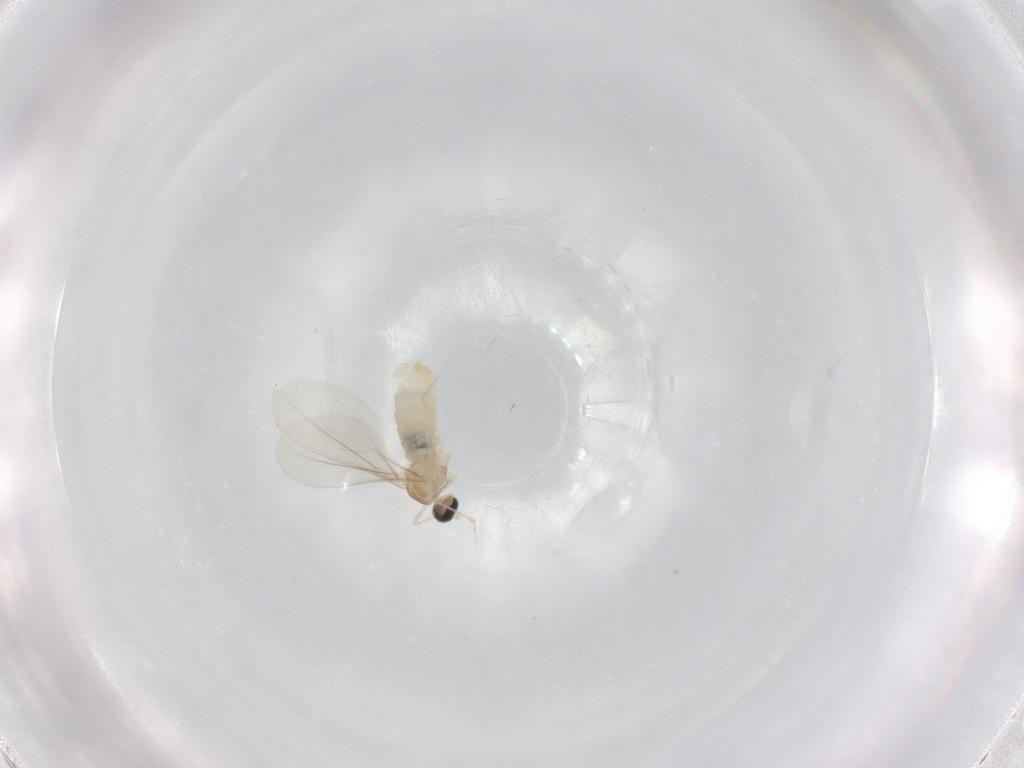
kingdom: Animalia
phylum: Arthropoda
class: Insecta
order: Diptera
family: Cecidomyiidae
